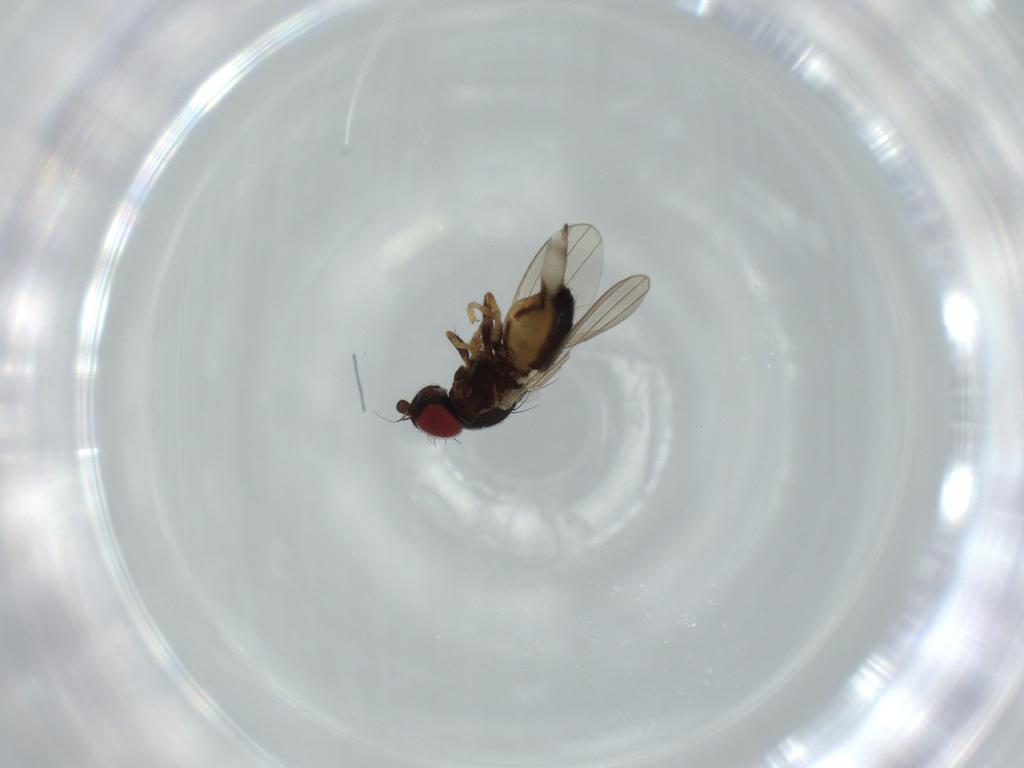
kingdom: Animalia
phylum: Arthropoda
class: Insecta
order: Diptera
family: Chamaemyiidae
